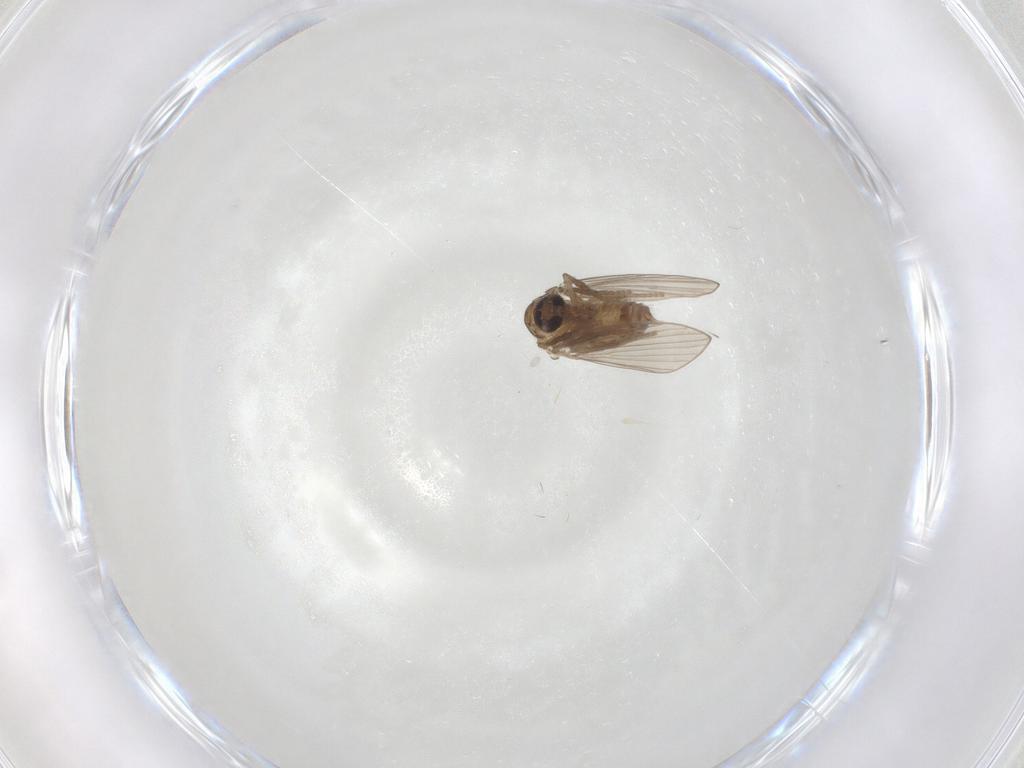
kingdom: Animalia
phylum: Arthropoda
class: Insecta
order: Diptera
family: Psychodidae
